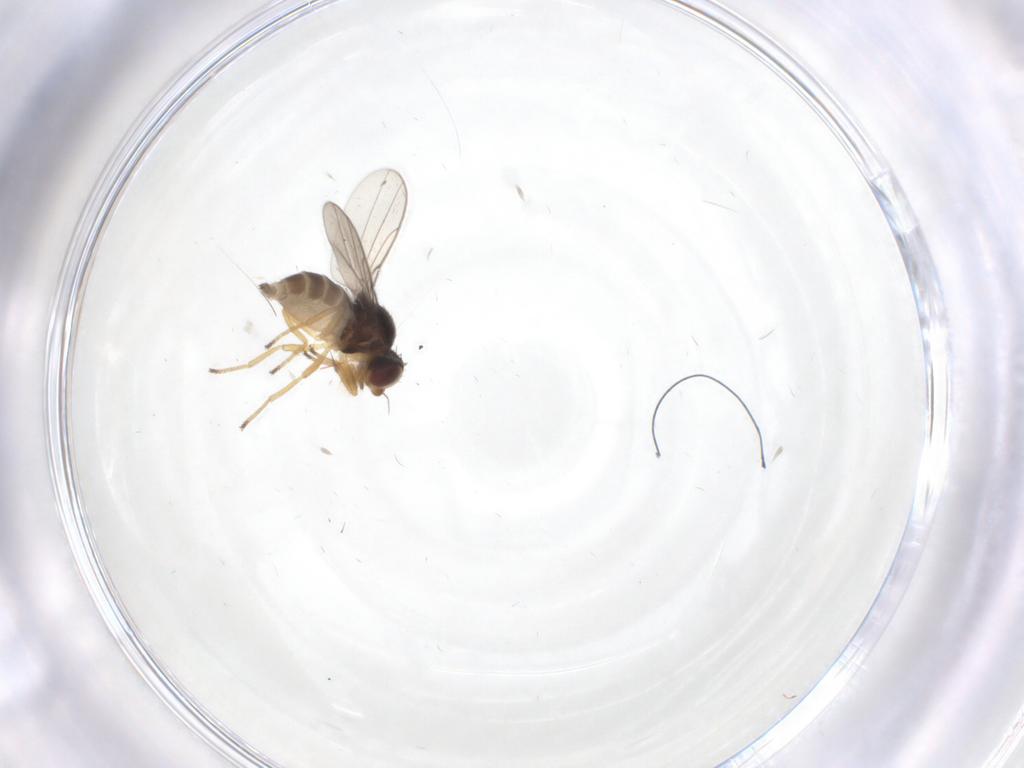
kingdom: Animalia
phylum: Arthropoda
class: Insecta
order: Diptera
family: Chloropidae
